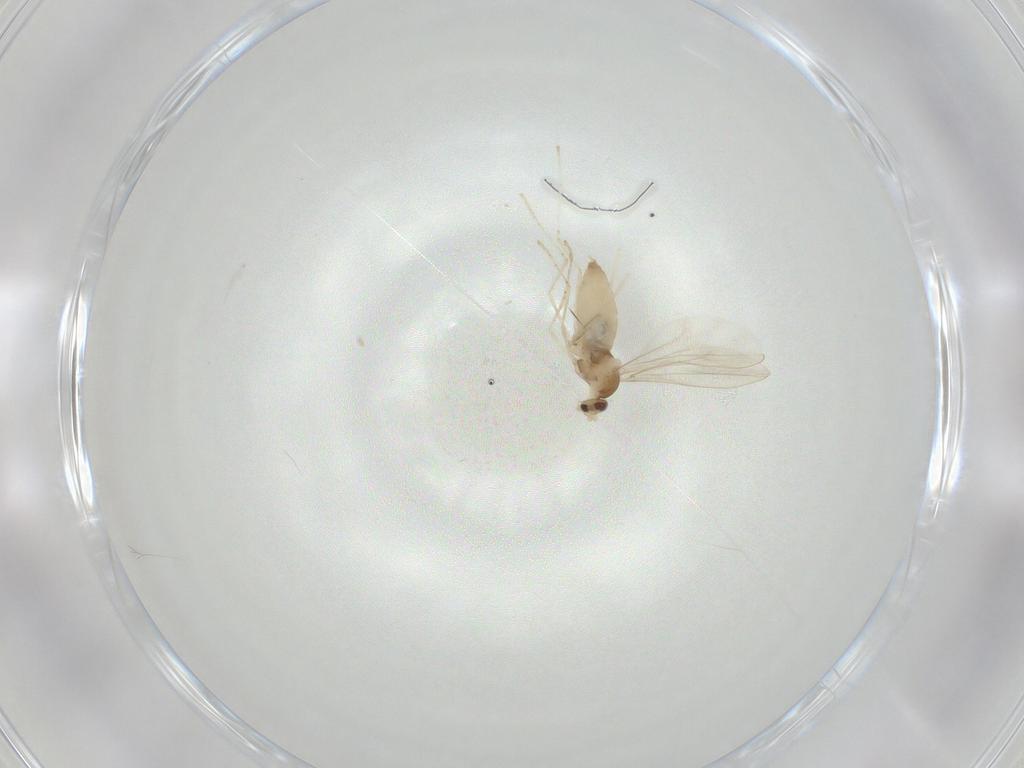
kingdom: Animalia
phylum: Arthropoda
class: Insecta
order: Diptera
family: Cecidomyiidae
